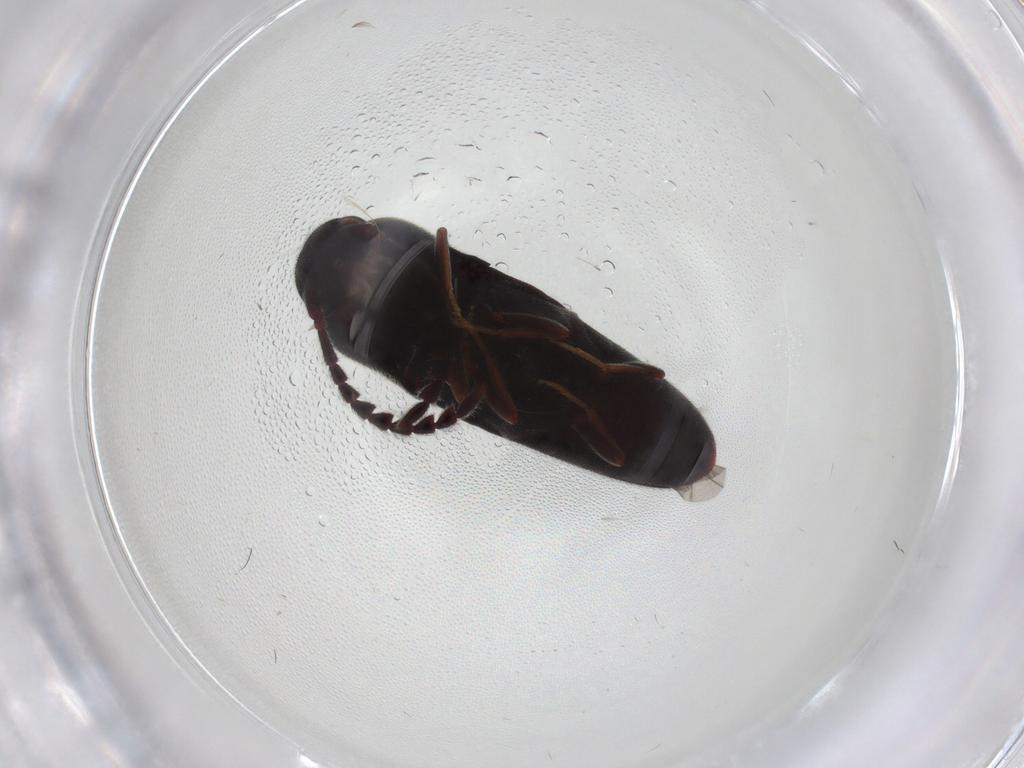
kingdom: Animalia
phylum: Arthropoda
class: Insecta
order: Coleoptera
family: Eucnemidae
